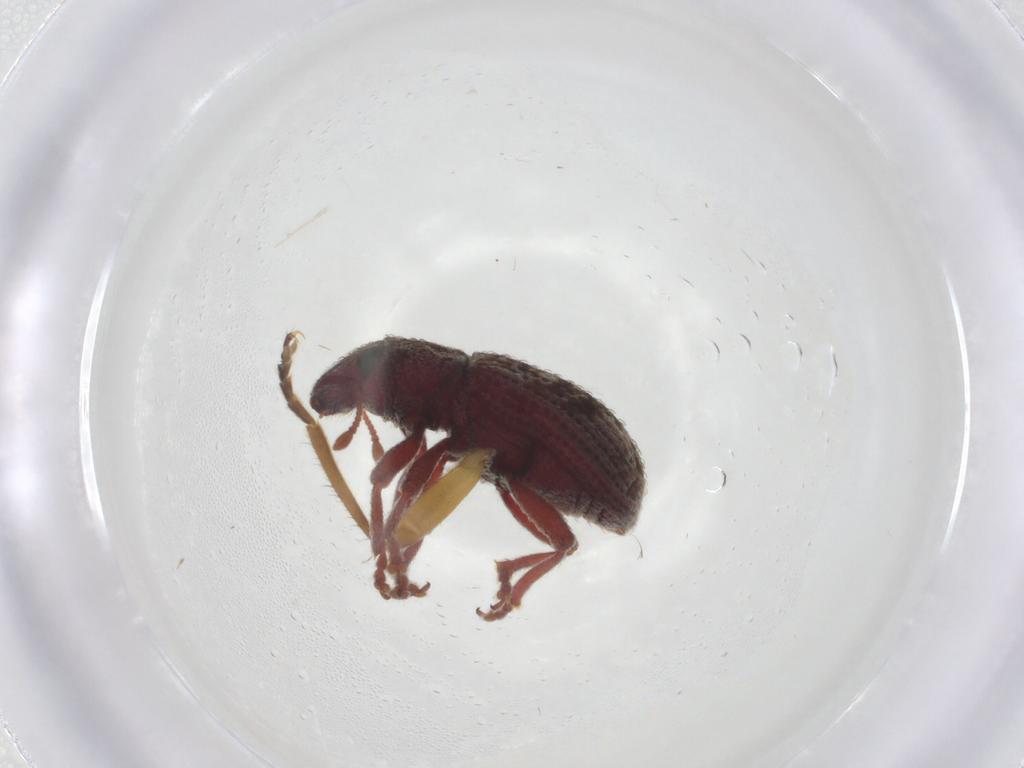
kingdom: Animalia
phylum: Arthropoda
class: Insecta
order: Coleoptera
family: Cantharidae
